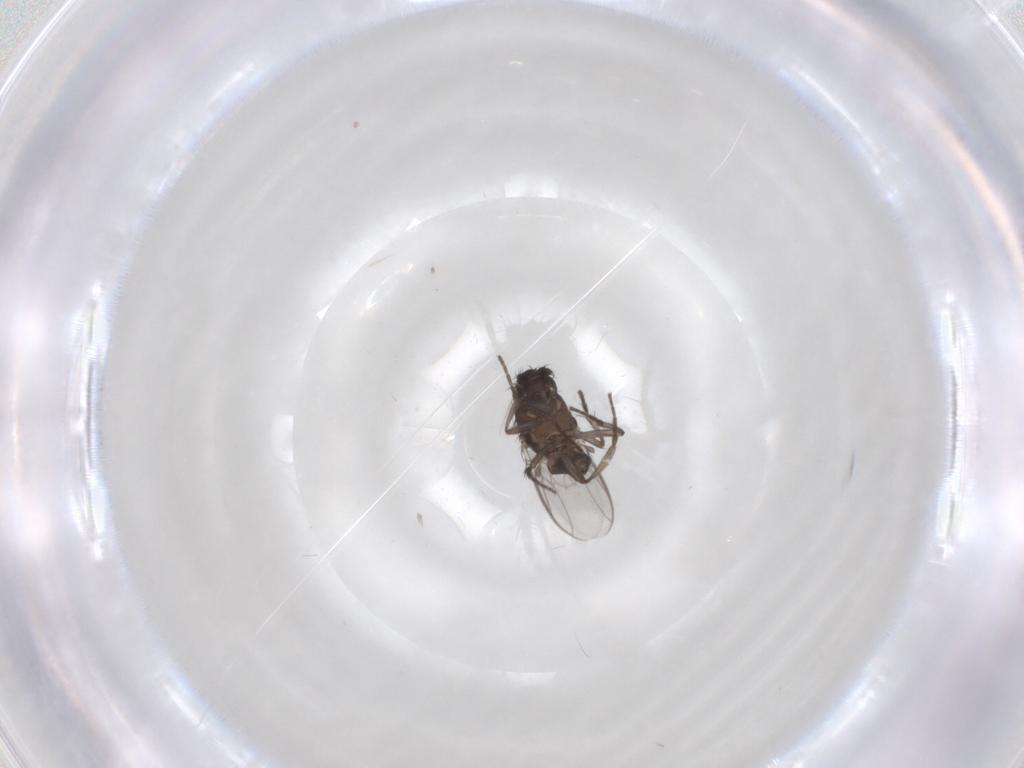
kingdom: Animalia
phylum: Arthropoda
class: Insecta
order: Diptera
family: Sphaeroceridae
